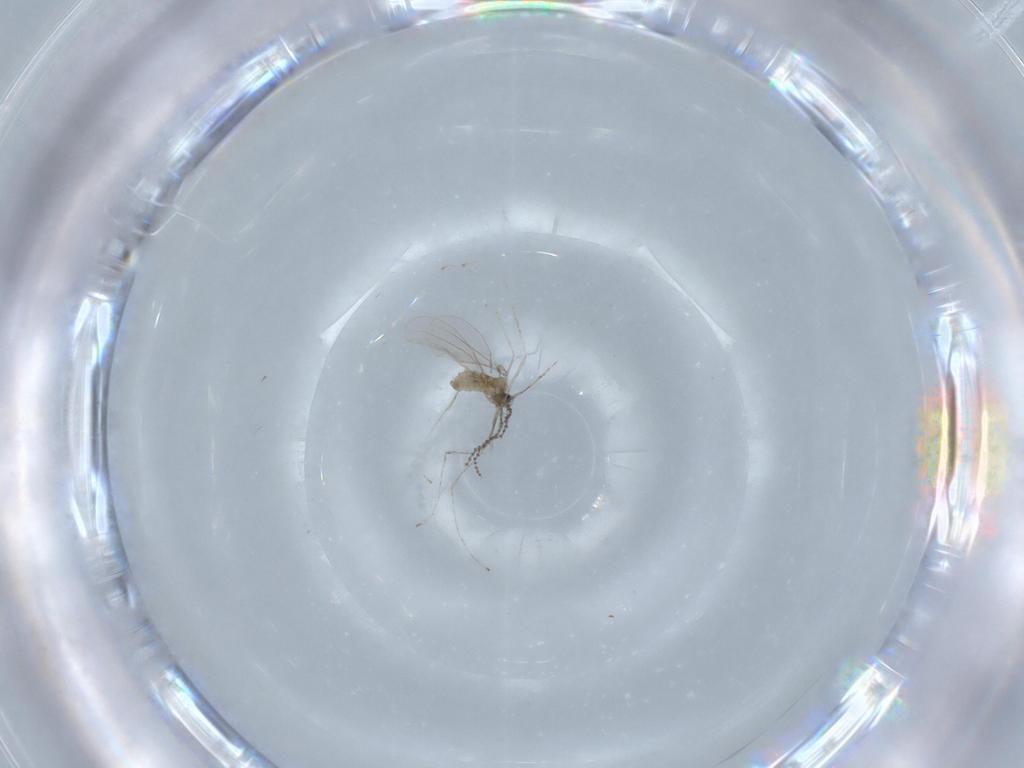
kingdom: Animalia
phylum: Arthropoda
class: Insecta
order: Diptera
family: Cecidomyiidae
